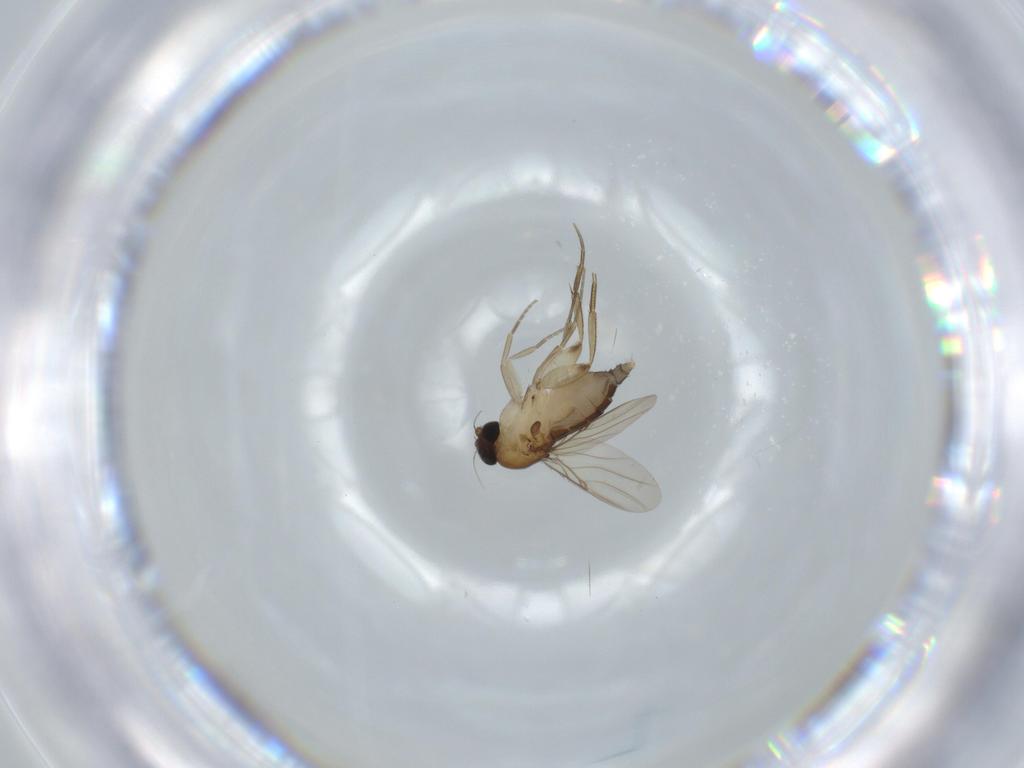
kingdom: Animalia
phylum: Arthropoda
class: Insecta
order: Diptera
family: Phoridae
